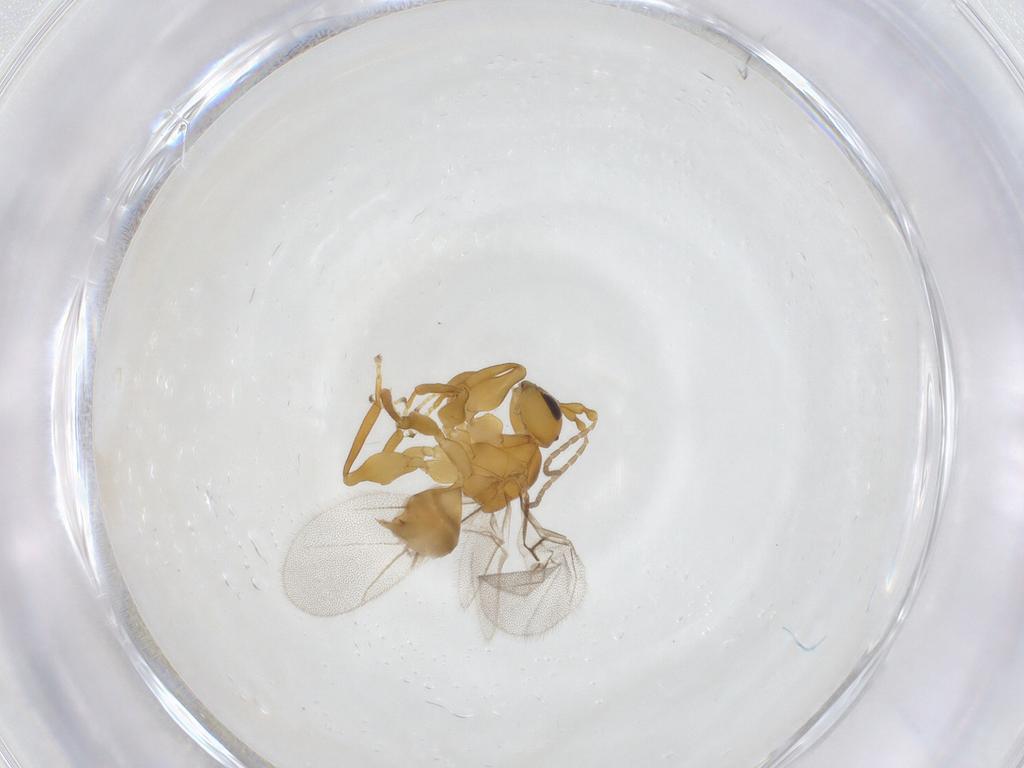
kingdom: Animalia
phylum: Arthropoda
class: Insecta
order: Hymenoptera
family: Cynipidae
